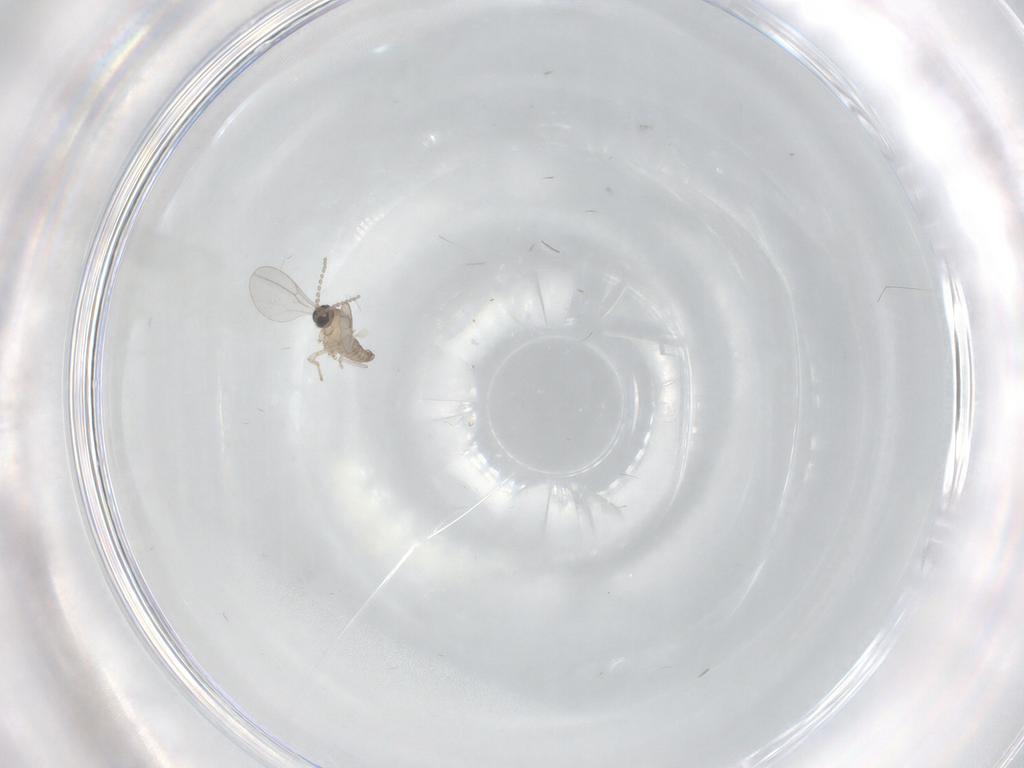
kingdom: Animalia
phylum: Arthropoda
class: Insecta
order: Diptera
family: Cecidomyiidae
